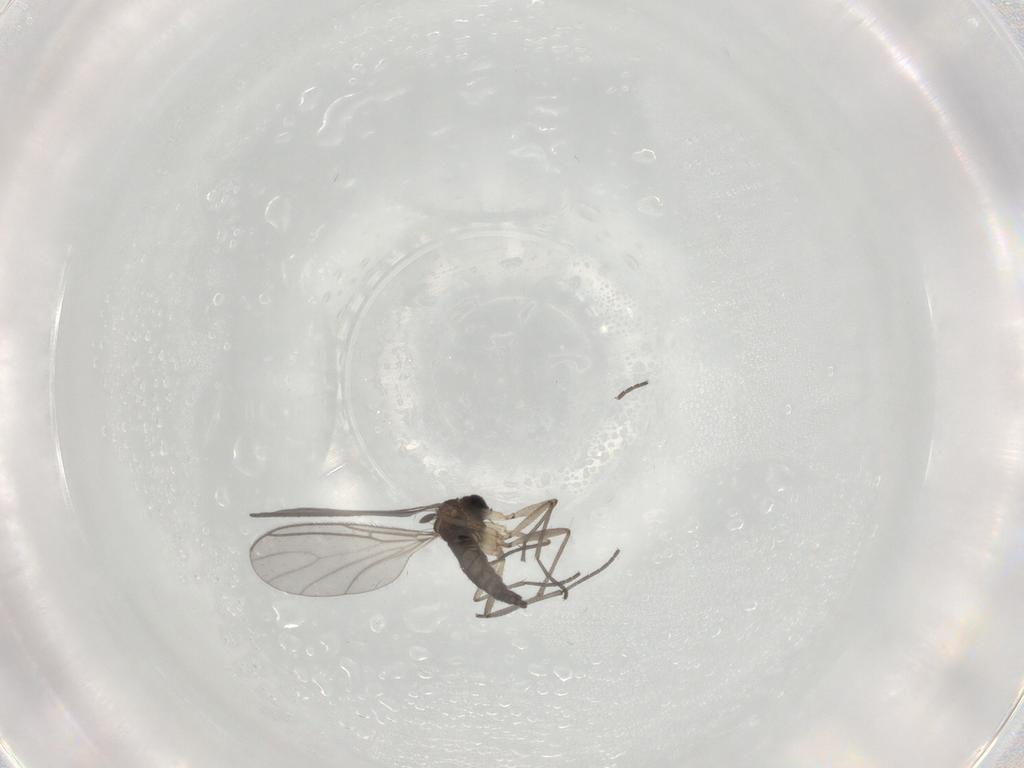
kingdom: Animalia
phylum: Arthropoda
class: Insecta
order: Diptera
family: Sciaridae
